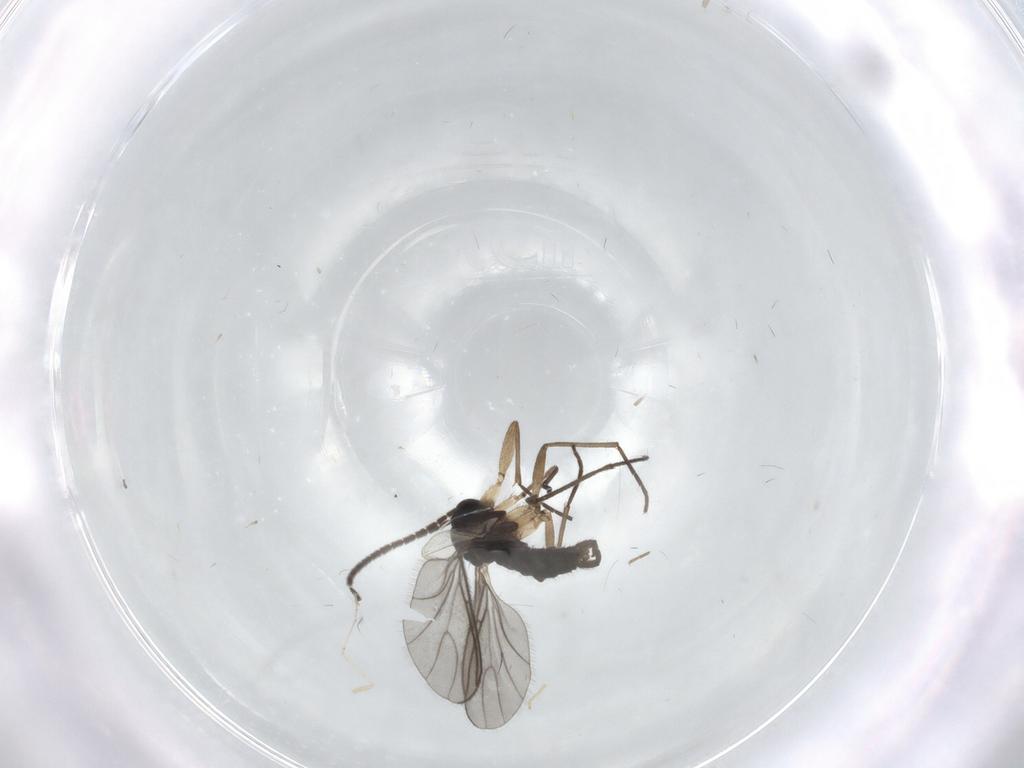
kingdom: Animalia
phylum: Arthropoda
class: Insecta
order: Diptera
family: Sciaridae
